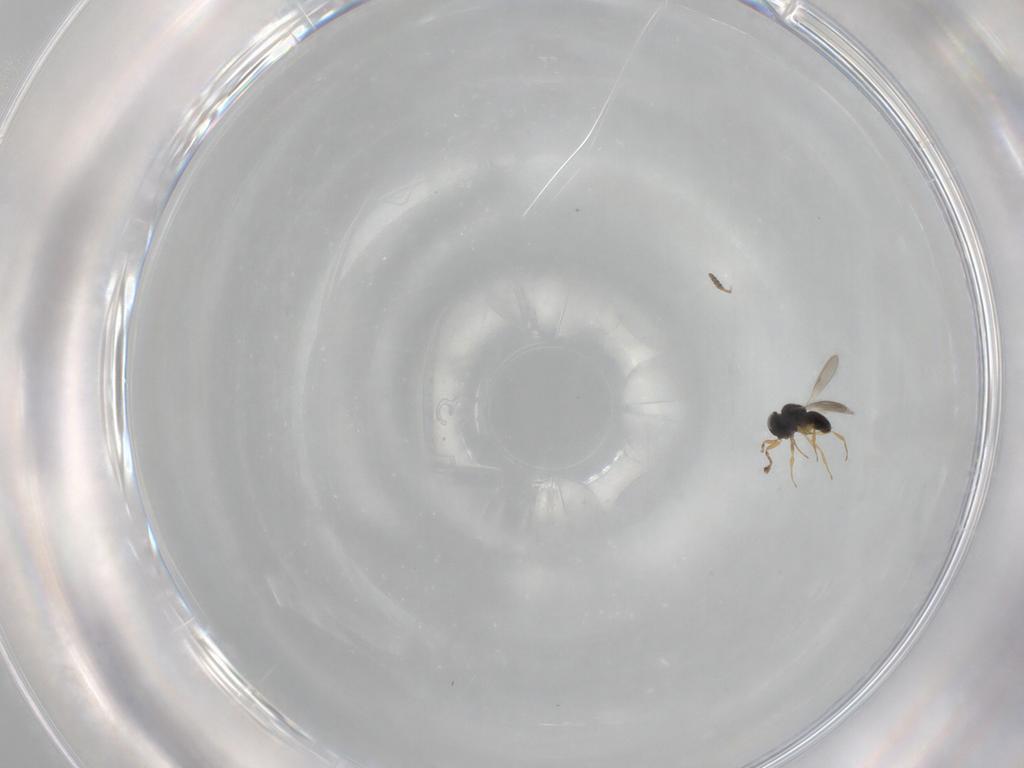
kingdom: Animalia
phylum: Arthropoda
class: Insecta
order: Hymenoptera
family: Scelionidae
